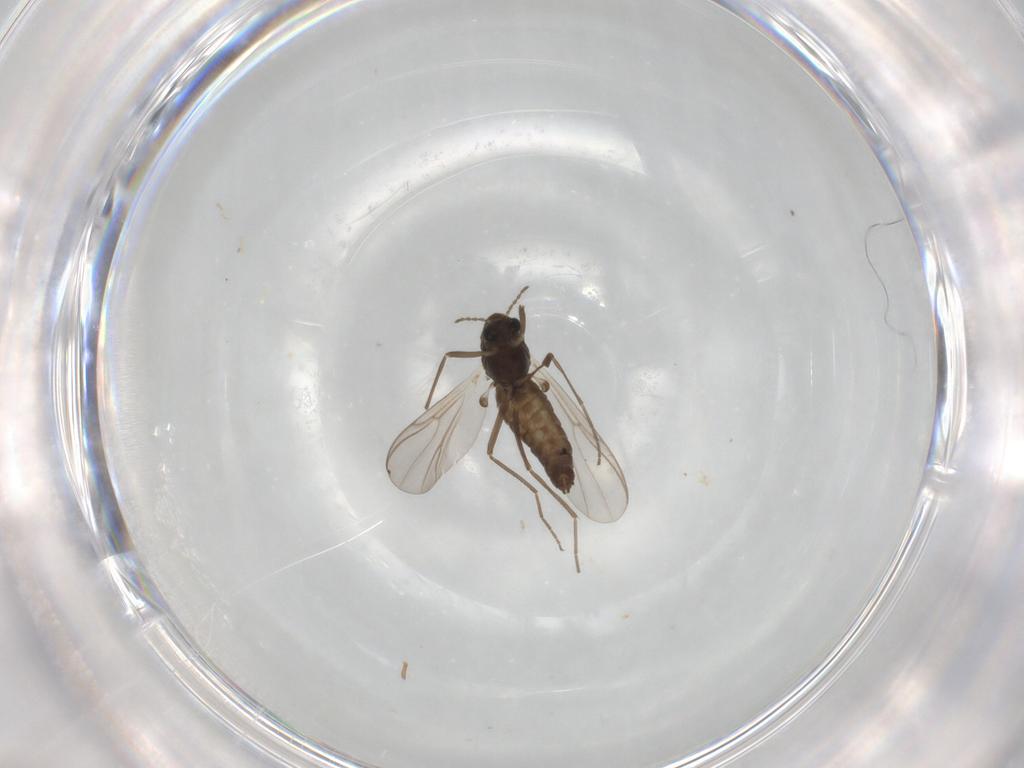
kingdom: Animalia
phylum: Arthropoda
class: Insecta
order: Diptera
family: Chironomidae
